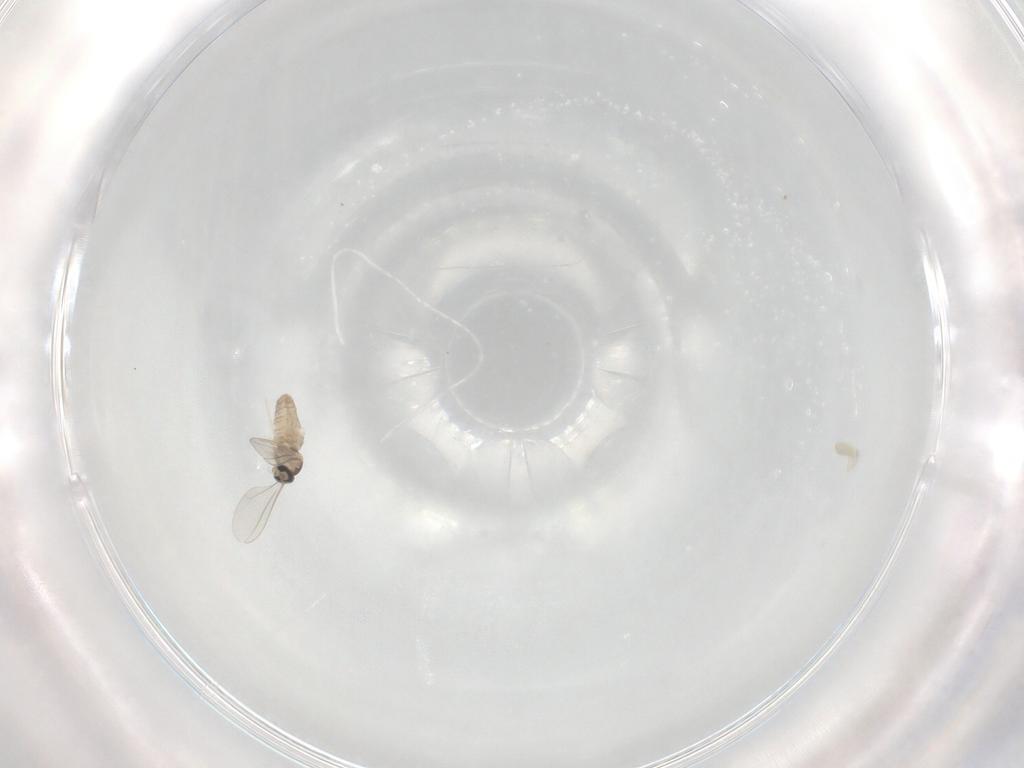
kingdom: Animalia
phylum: Arthropoda
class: Insecta
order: Diptera
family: Cecidomyiidae
